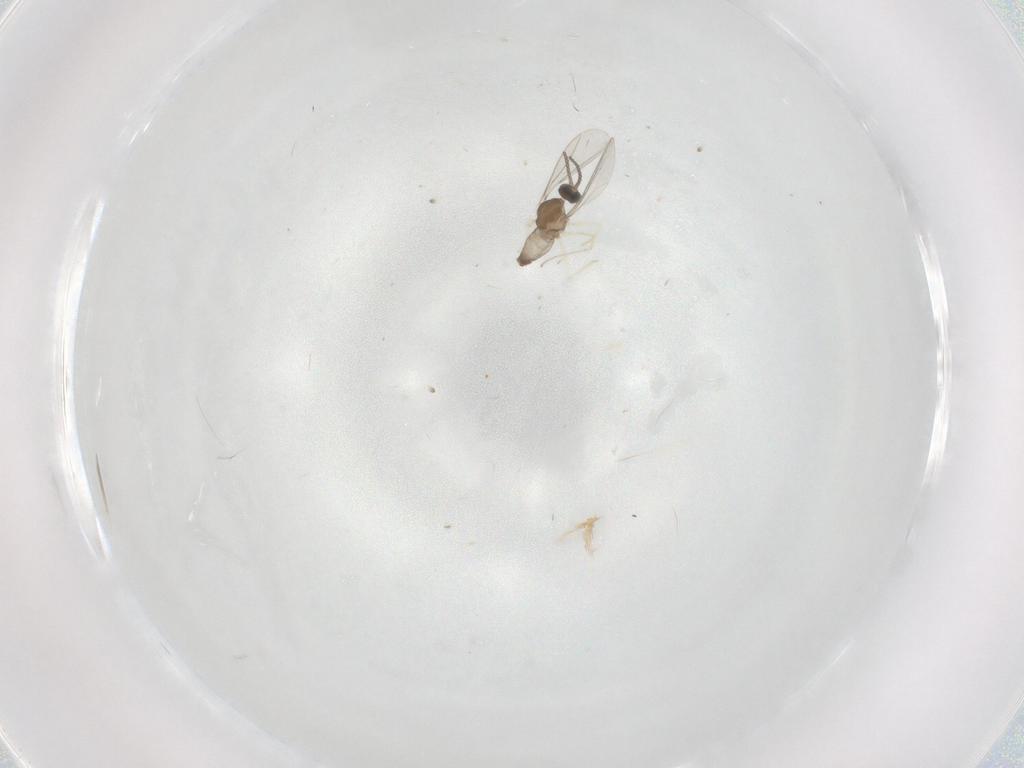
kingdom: Animalia
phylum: Arthropoda
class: Insecta
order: Diptera
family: Cecidomyiidae
